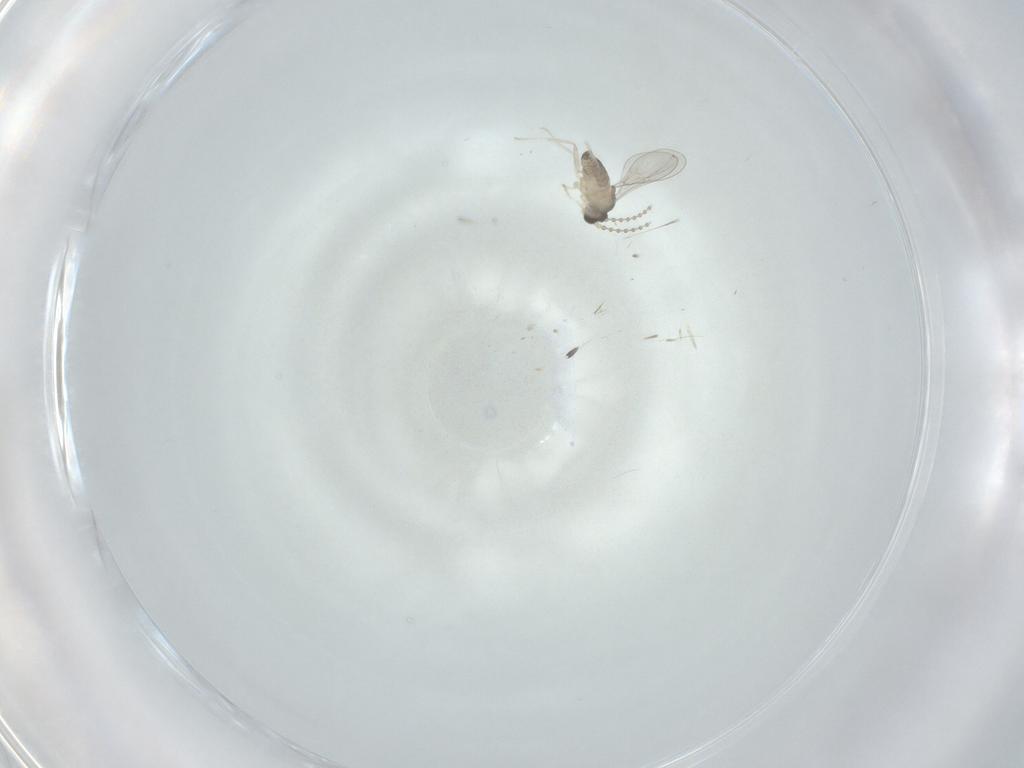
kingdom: Animalia
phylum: Arthropoda
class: Insecta
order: Diptera
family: Cecidomyiidae
